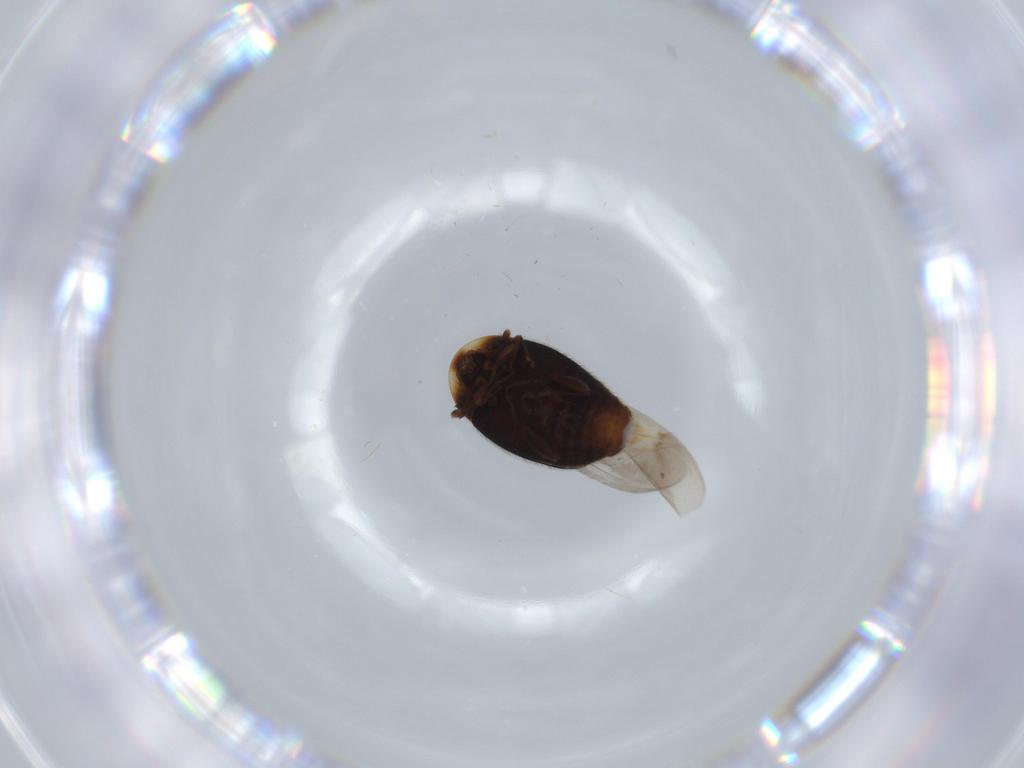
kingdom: Animalia
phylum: Arthropoda
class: Insecta
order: Coleoptera
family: Corylophidae
